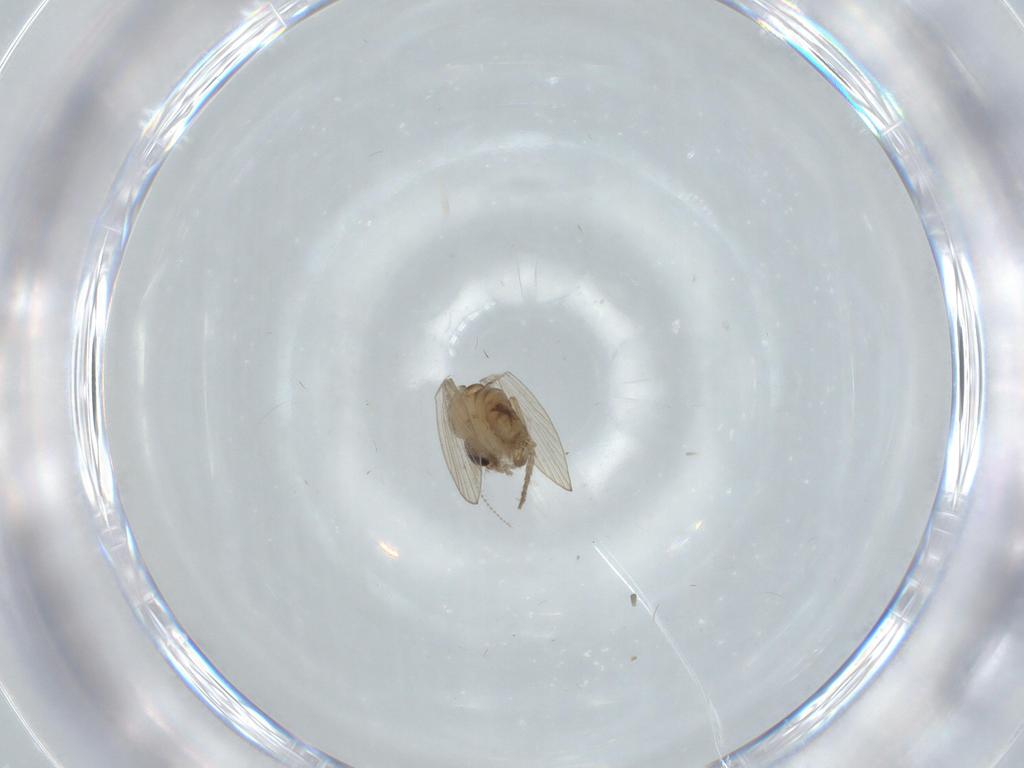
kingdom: Animalia
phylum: Arthropoda
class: Insecta
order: Diptera
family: Psychodidae
